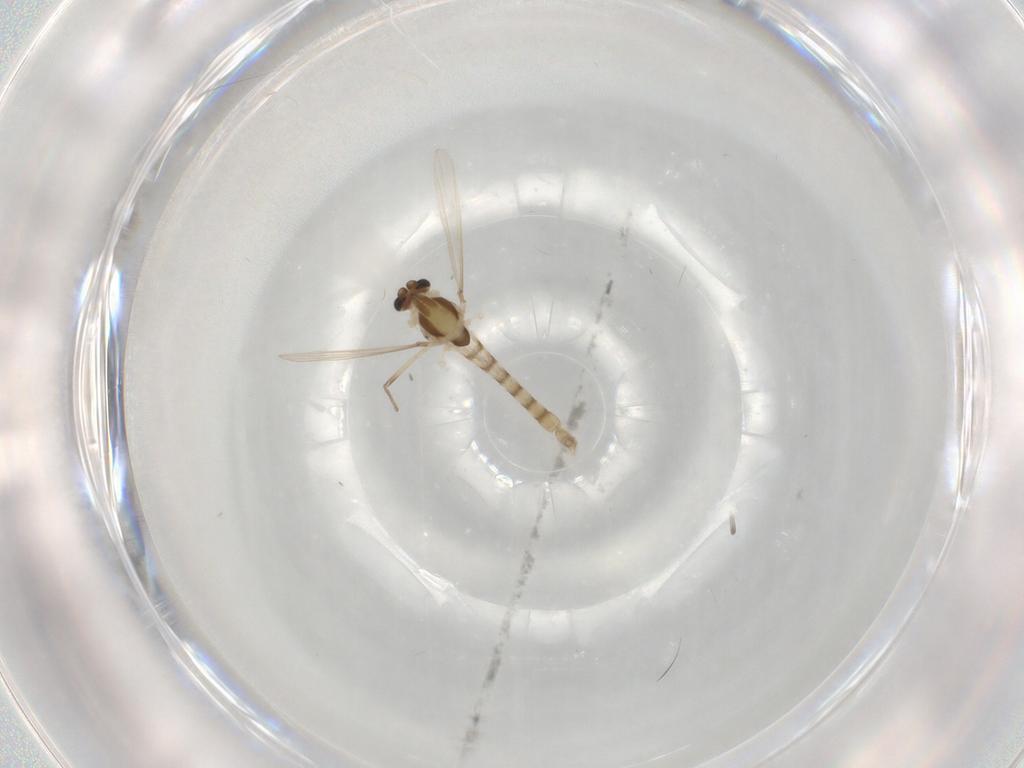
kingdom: Animalia
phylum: Arthropoda
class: Insecta
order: Diptera
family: Chironomidae
